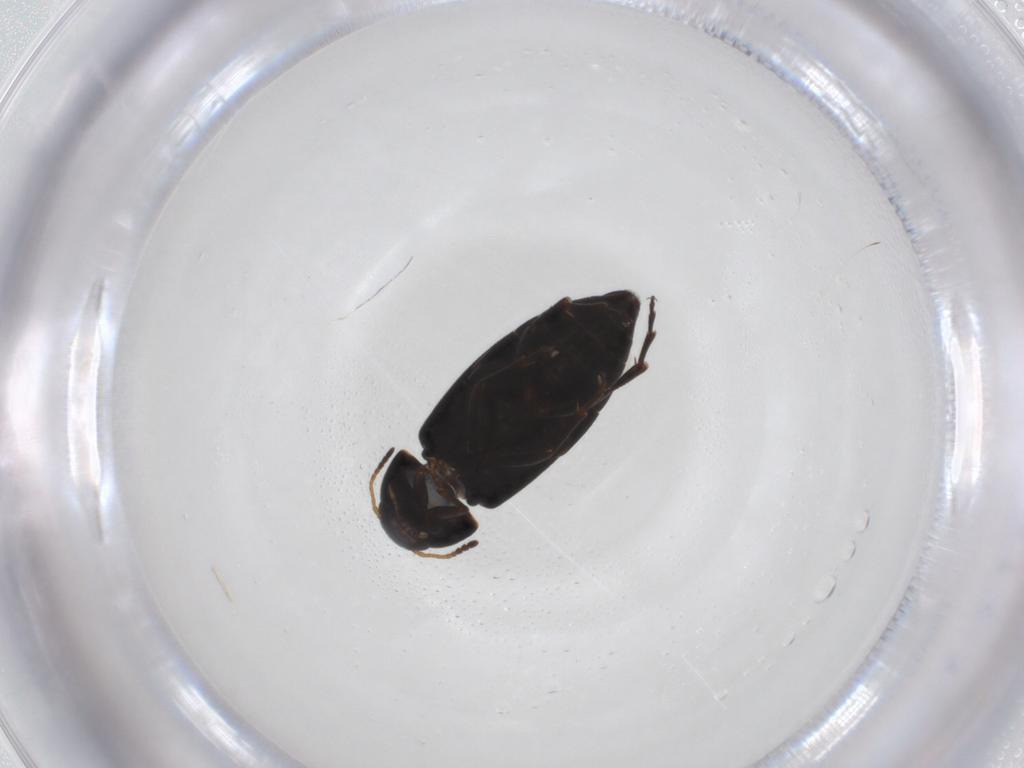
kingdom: Animalia
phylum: Arthropoda
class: Insecta
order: Coleoptera
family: Scraptiidae
